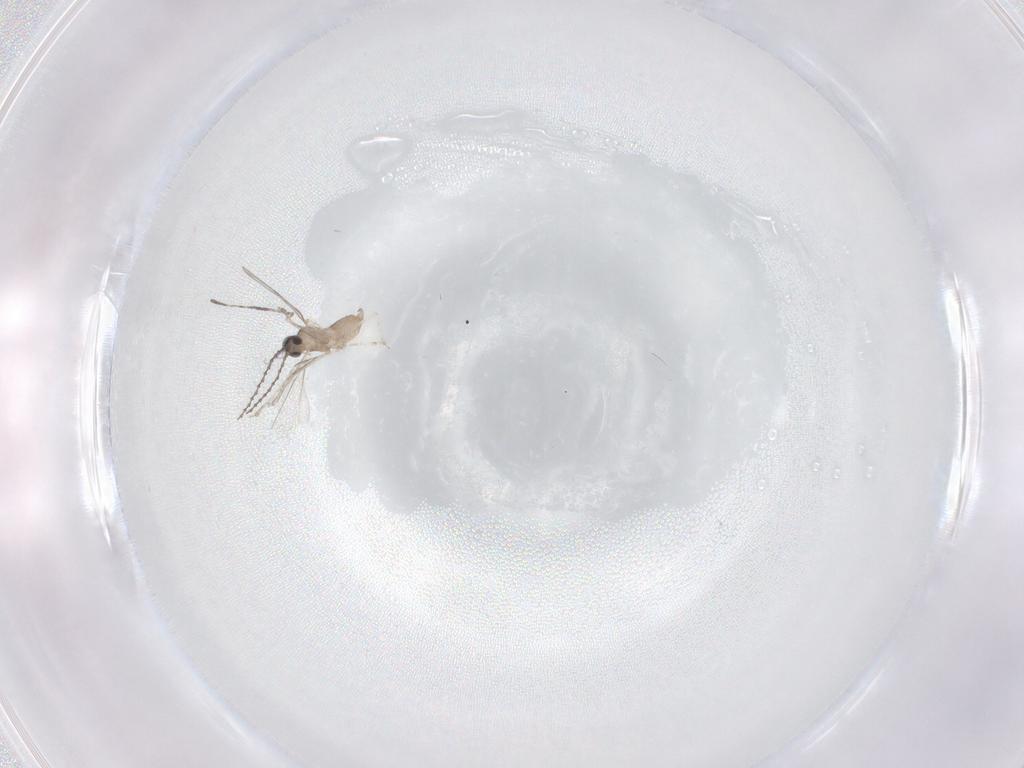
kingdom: Animalia
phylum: Arthropoda
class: Insecta
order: Diptera
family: Cecidomyiidae
